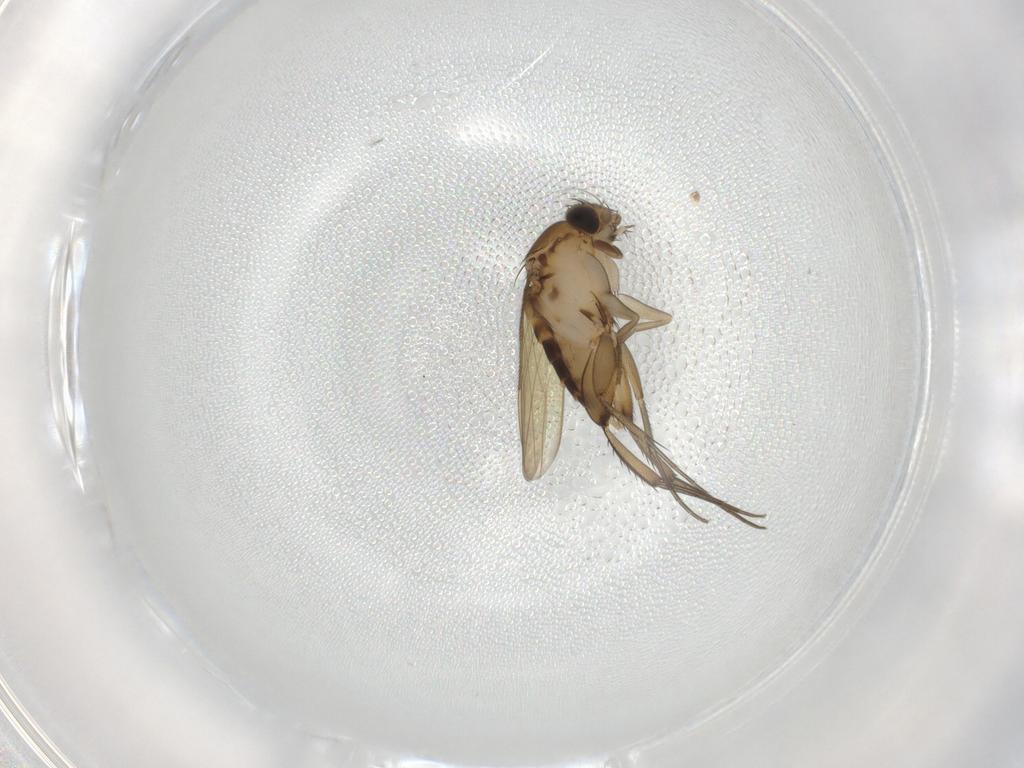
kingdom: Animalia
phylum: Arthropoda
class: Insecta
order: Diptera
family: Phoridae
